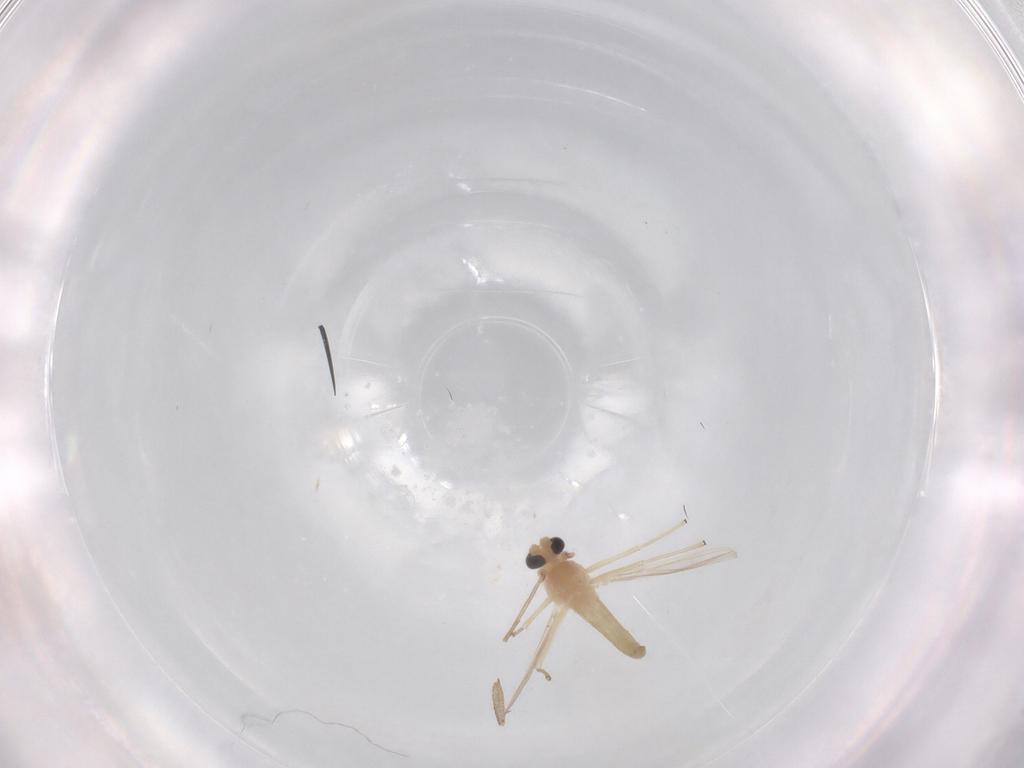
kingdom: Animalia
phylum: Arthropoda
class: Insecta
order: Diptera
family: Chironomidae
